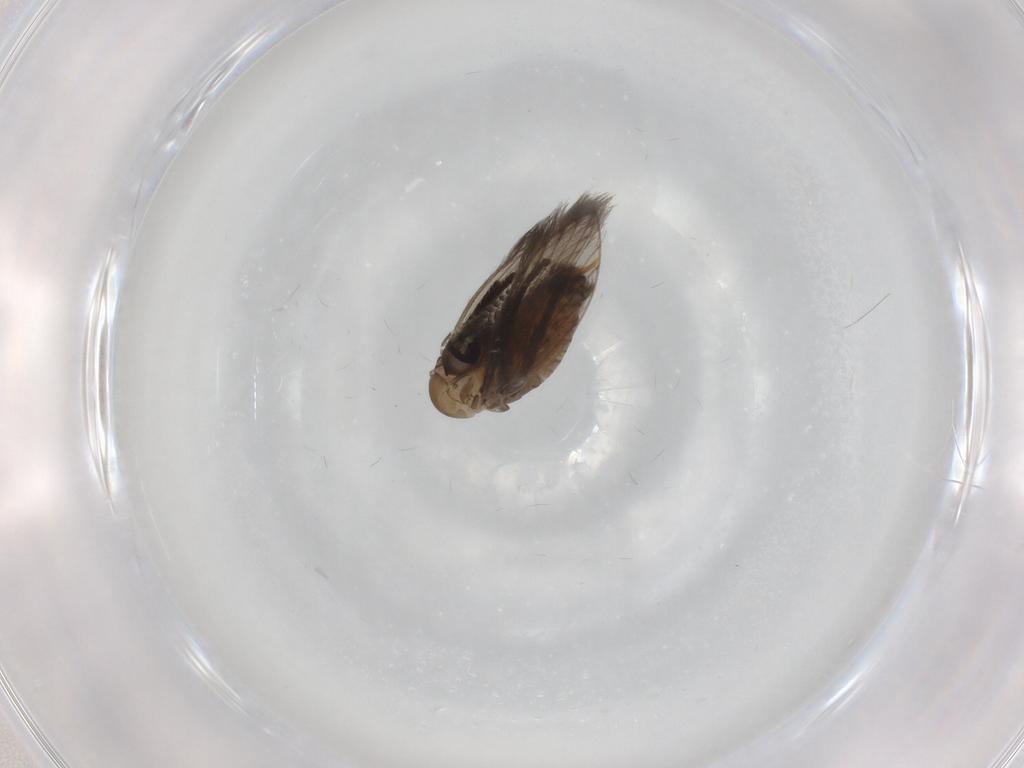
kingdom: Animalia
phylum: Arthropoda
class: Insecta
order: Diptera
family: Psychodidae
